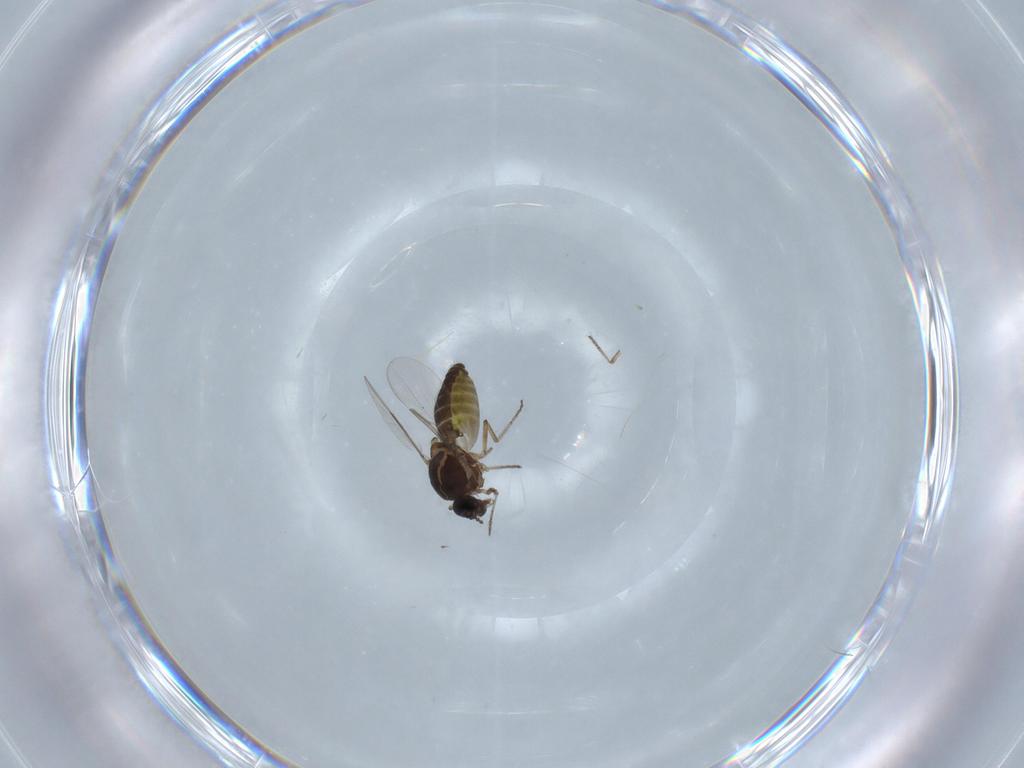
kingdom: Animalia
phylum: Arthropoda
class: Insecta
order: Diptera
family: Ceratopogonidae
